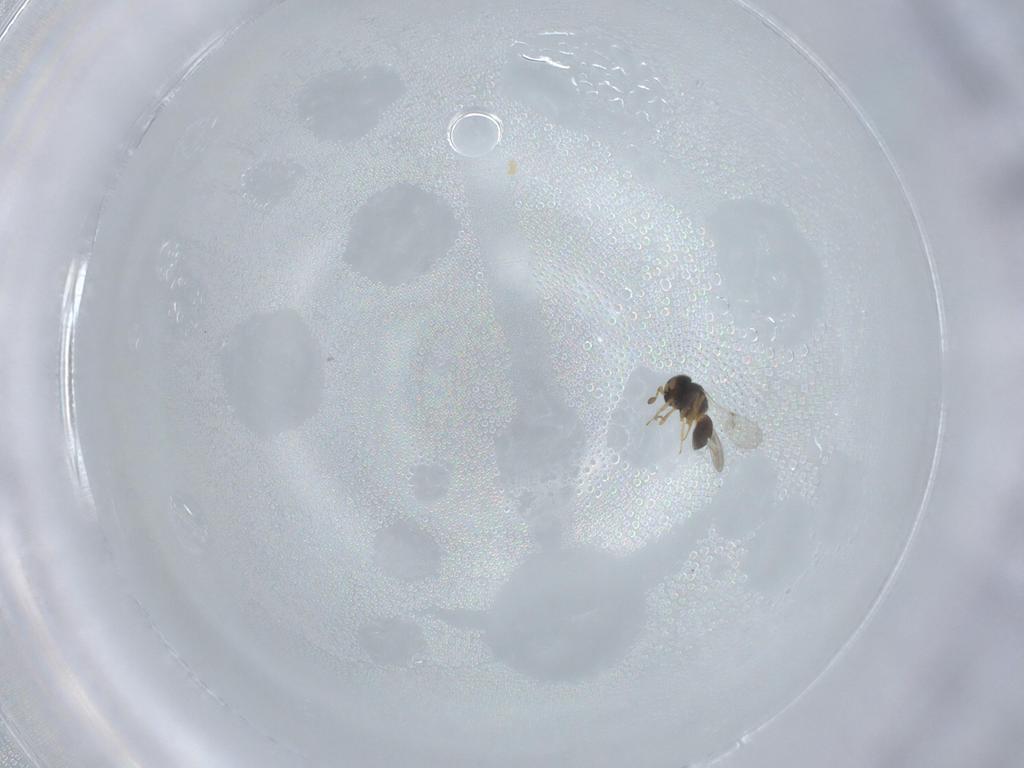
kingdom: Animalia
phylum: Arthropoda
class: Insecta
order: Hymenoptera
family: Scelionidae
